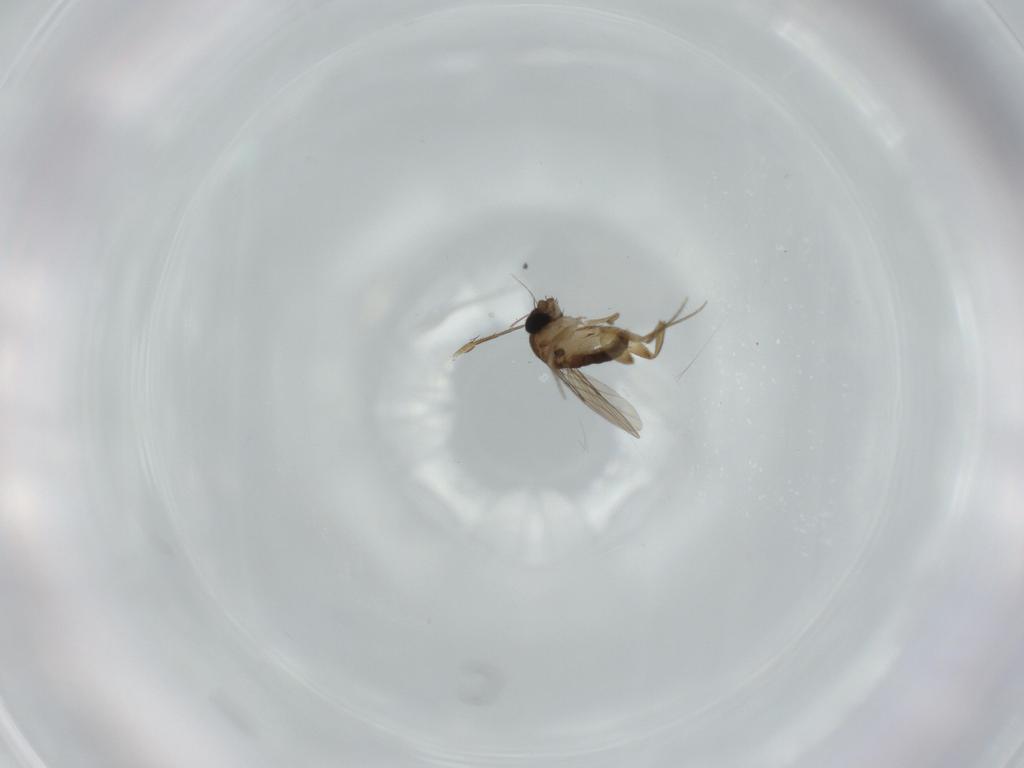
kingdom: Animalia
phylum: Arthropoda
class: Insecta
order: Diptera
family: Phoridae
